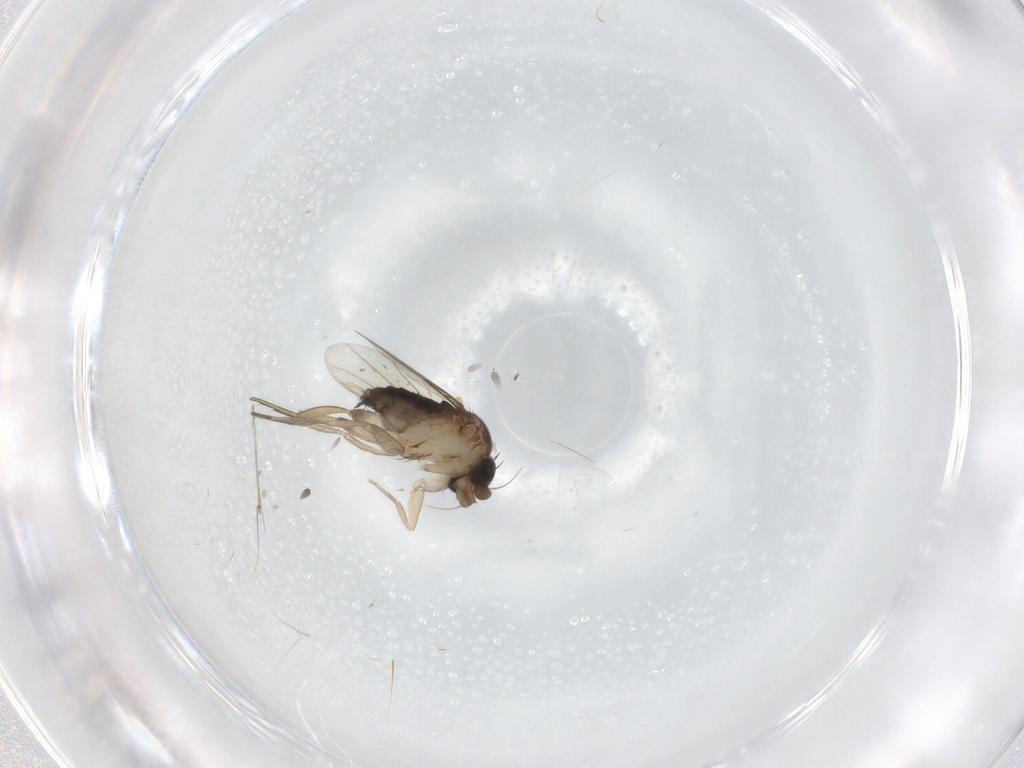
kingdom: Animalia
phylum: Arthropoda
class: Insecta
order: Diptera
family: Phoridae
